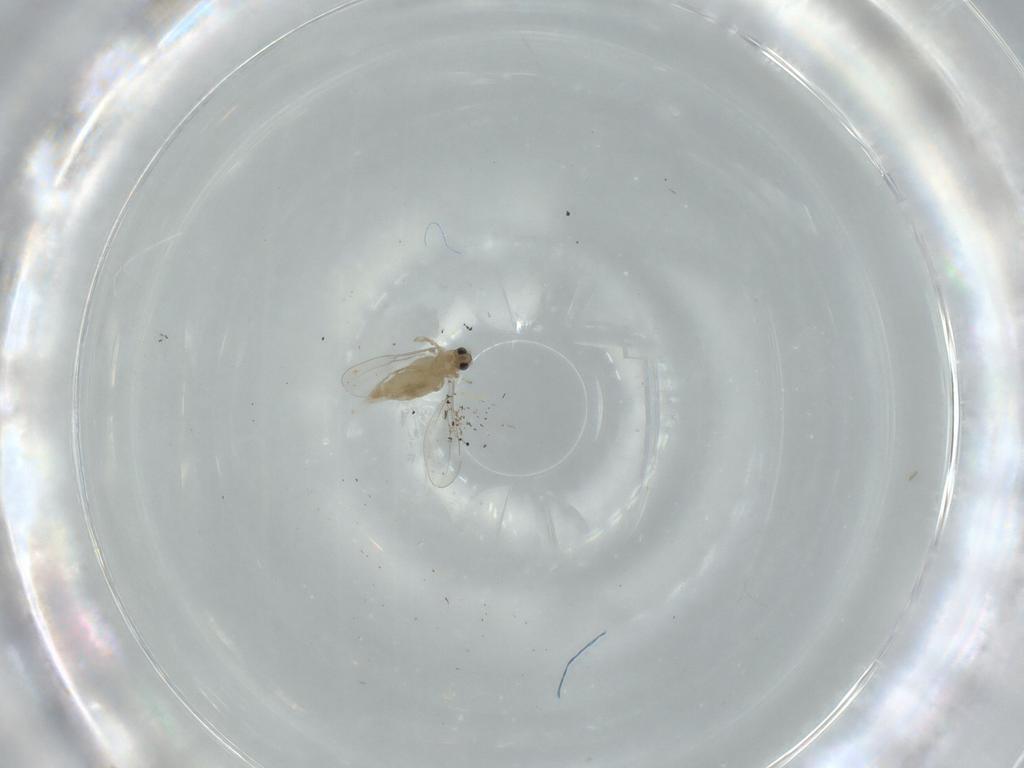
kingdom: Animalia
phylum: Arthropoda
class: Insecta
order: Diptera
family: Cecidomyiidae
